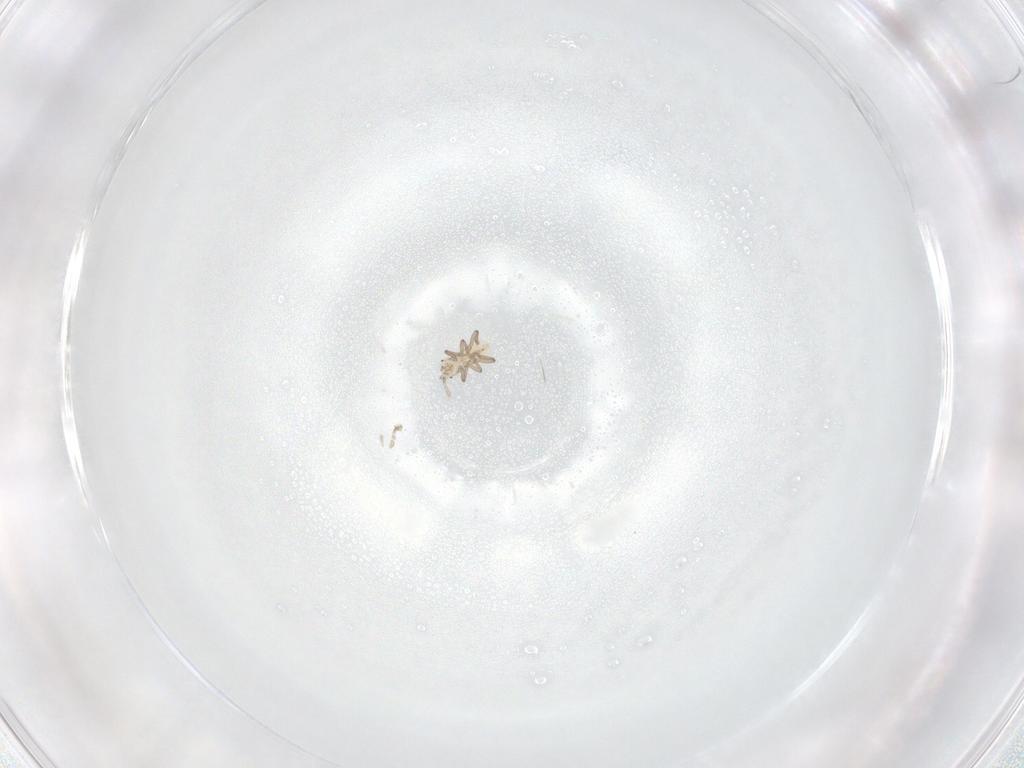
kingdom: Animalia
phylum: Arthropoda
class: Insecta
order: Hemiptera
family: Aphididae
